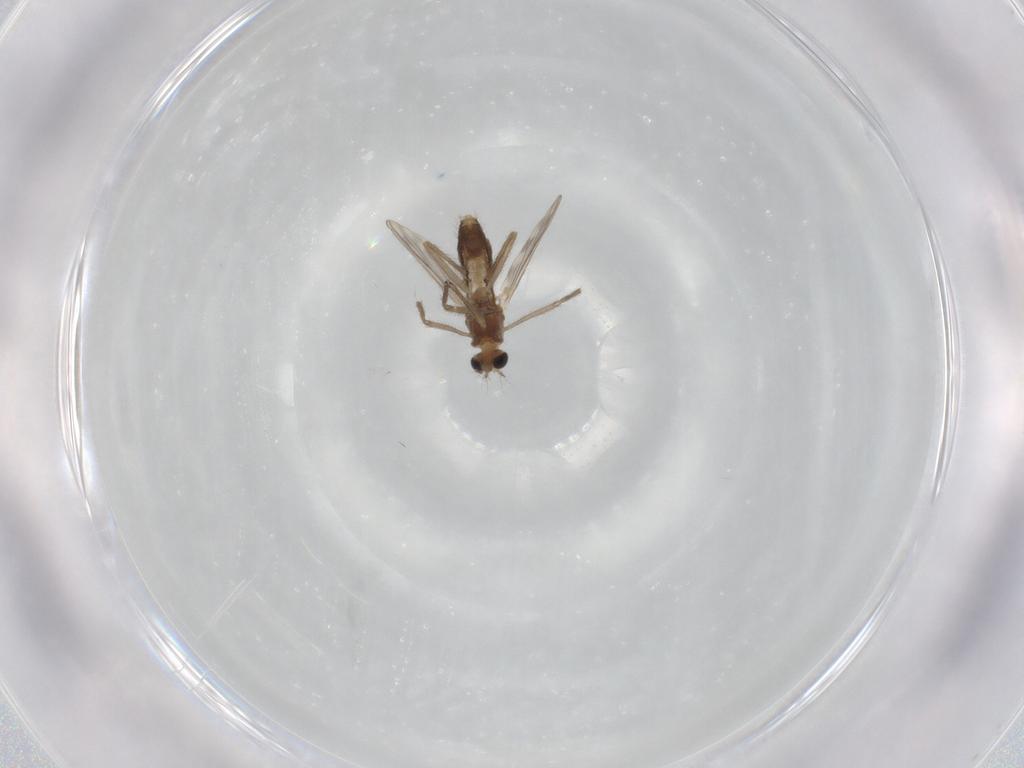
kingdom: Animalia
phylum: Arthropoda
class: Insecta
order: Diptera
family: Chironomidae
